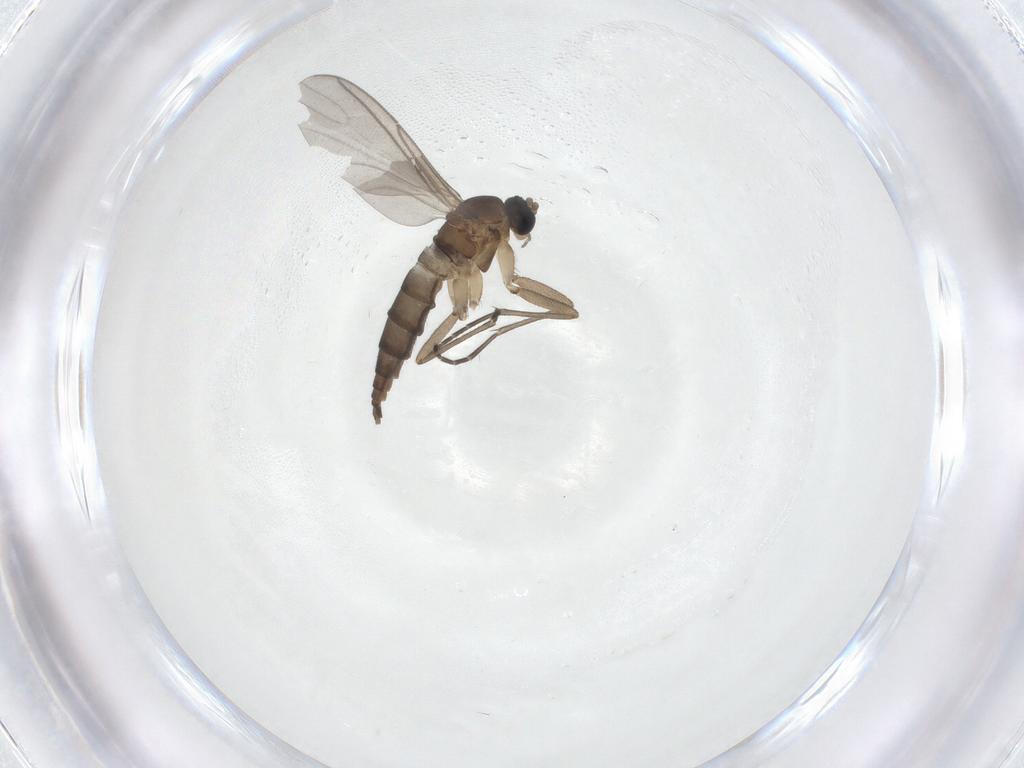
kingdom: Animalia
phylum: Arthropoda
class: Insecta
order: Diptera
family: Sciaridae
